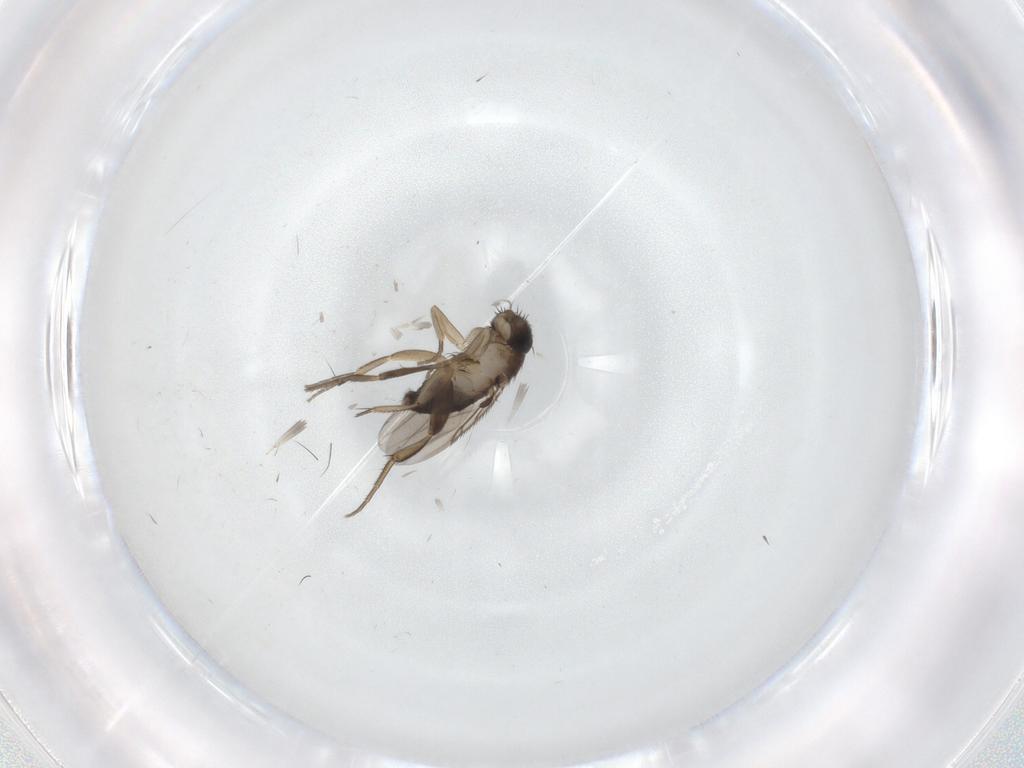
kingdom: Animalia
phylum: Arthropoda
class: Insecta
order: Diptera
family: Phoridae
